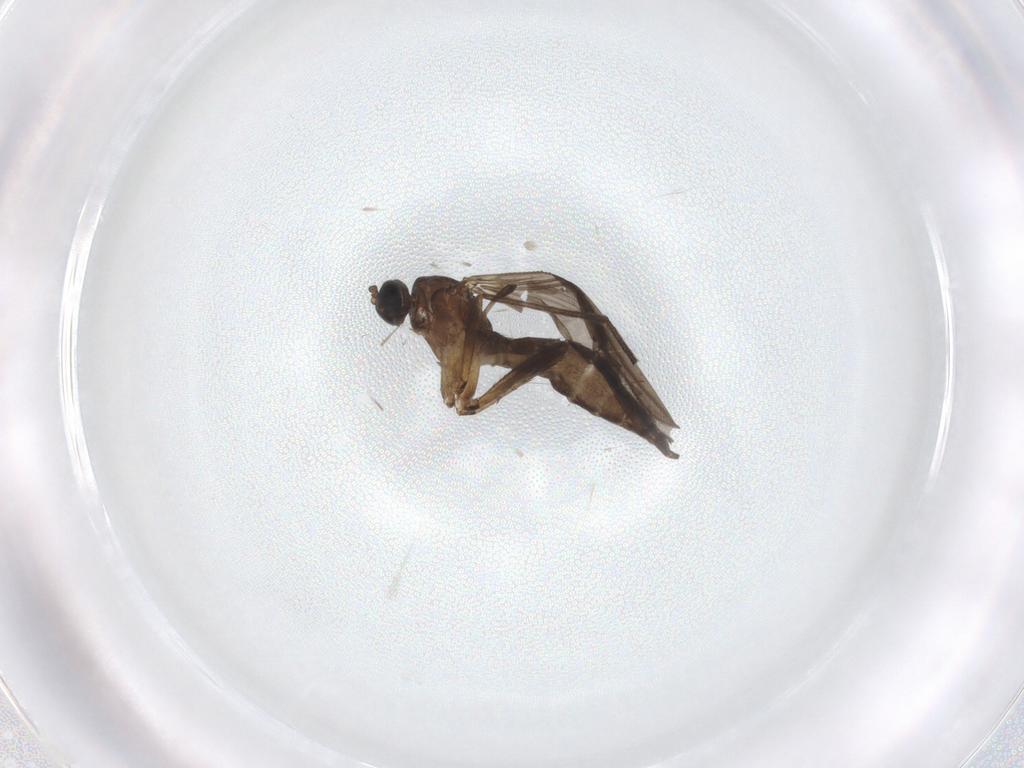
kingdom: Animalia
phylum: Arthropoda
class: Insecta
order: Diptera
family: Sciaridae
